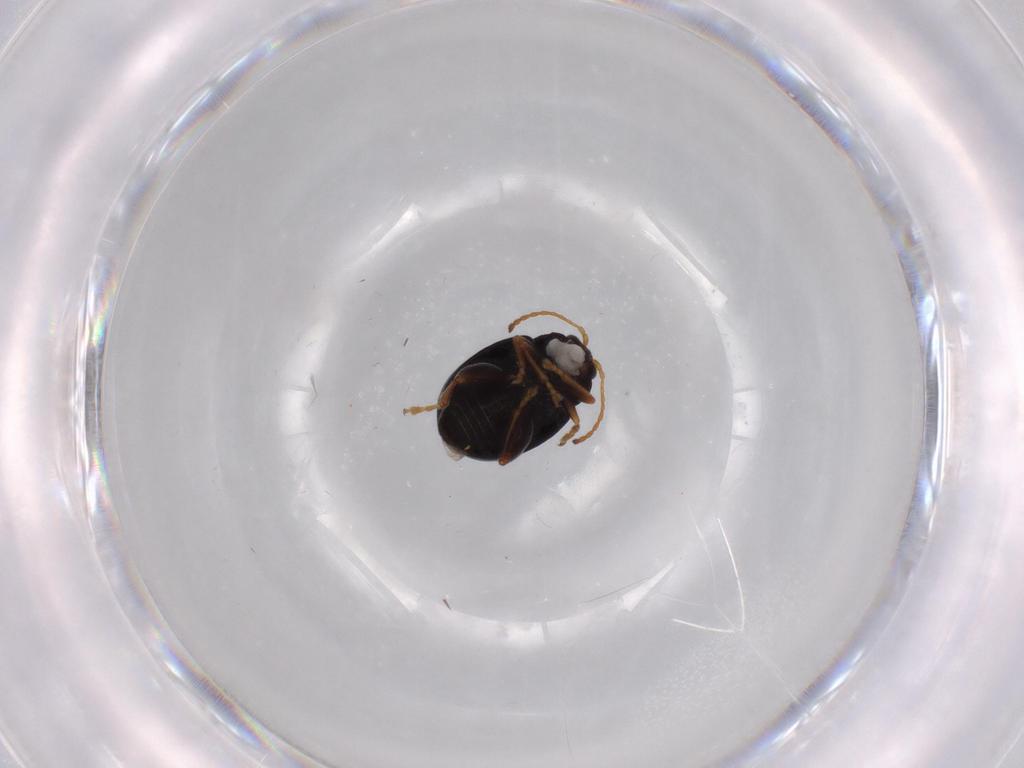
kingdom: Animalia
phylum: Arthropoda
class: Insecta
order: Coleoptera
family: Chrysomelidae
